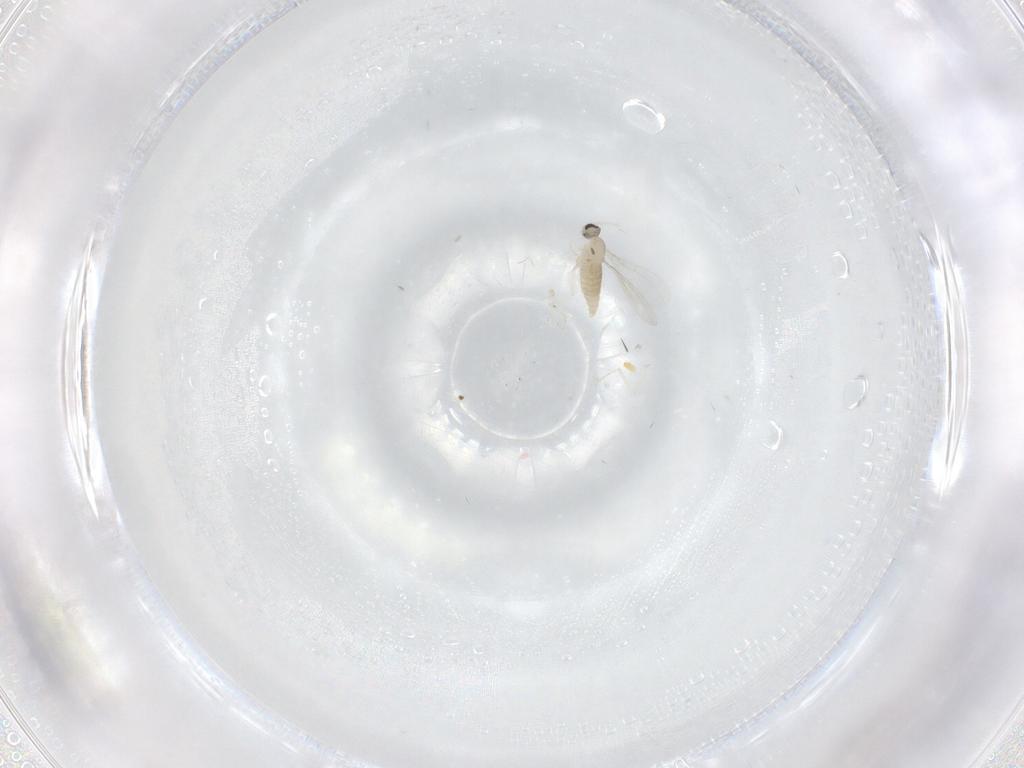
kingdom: Animalia
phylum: Arthropoda
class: Insecta
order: Diptera
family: Cecidomyiidae
